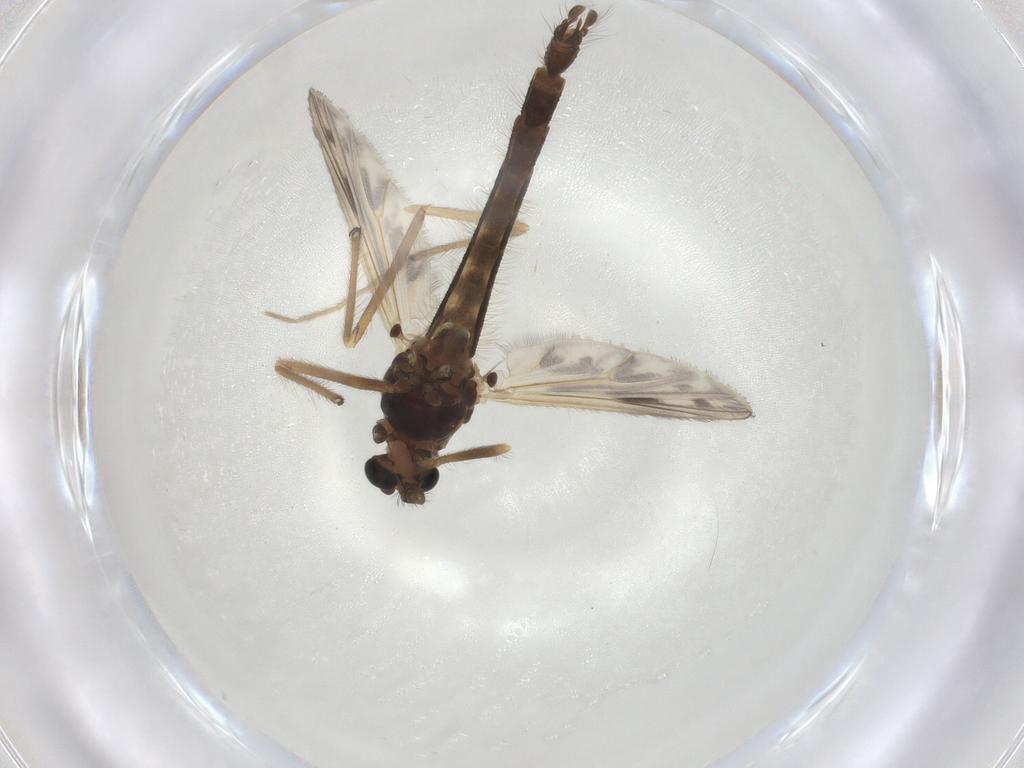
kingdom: Animalia
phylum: Arthropoda
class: Insecta
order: Diptera
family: Chironomidae
